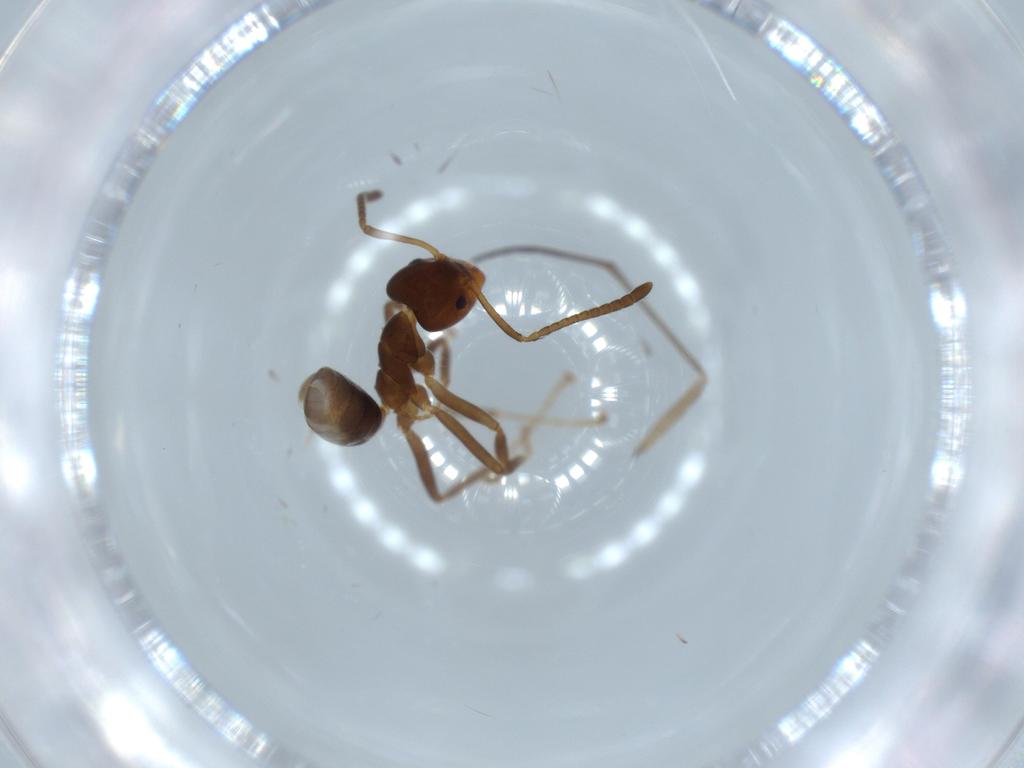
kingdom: Animalia
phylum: Arthropoda
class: Insecta
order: Hymenoptera
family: Formicidae
